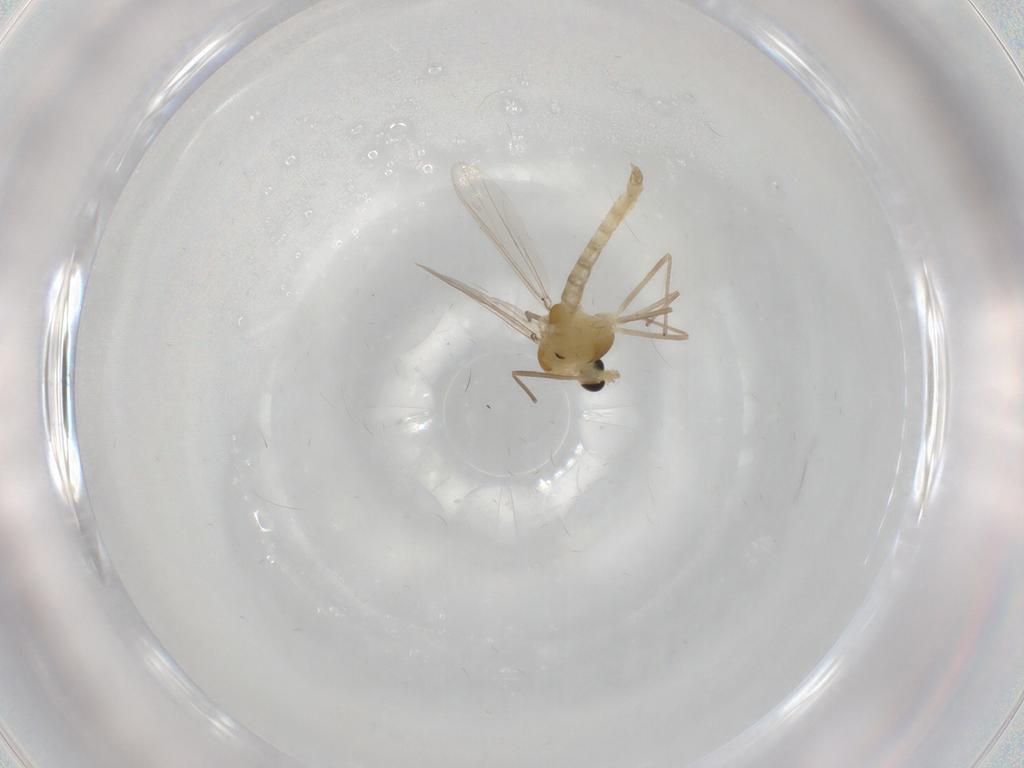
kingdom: Animalia
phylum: Arthropoda
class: Insecta
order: Diptera
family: Chironomidae
